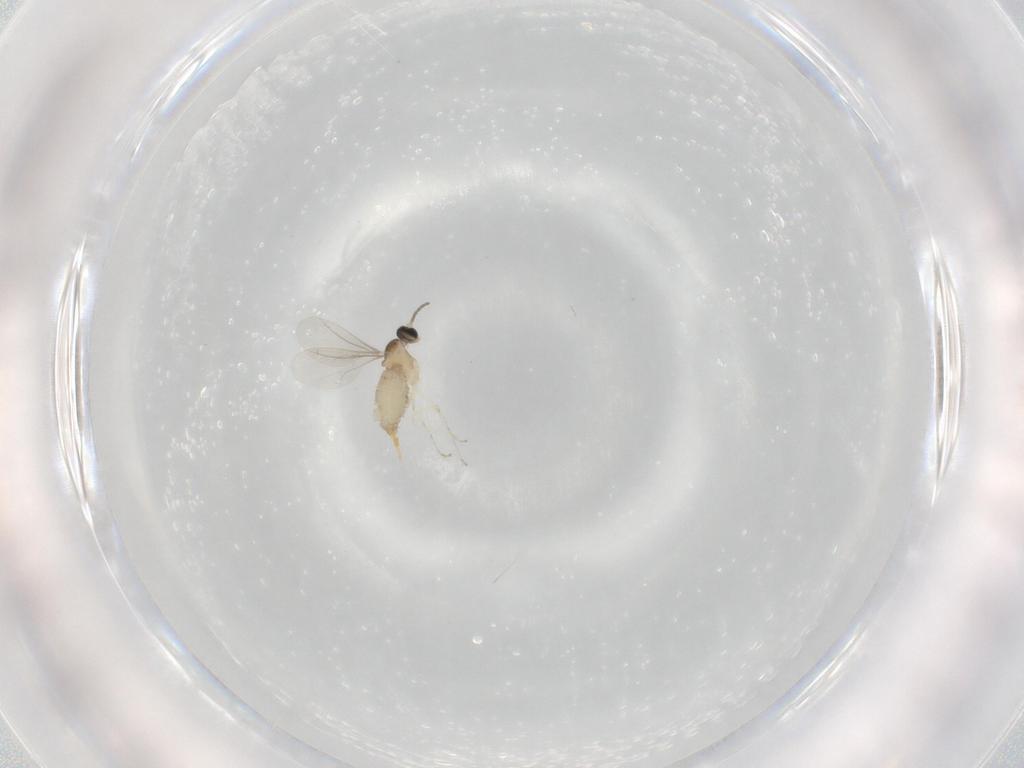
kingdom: Animalia
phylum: Arthropoda
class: Insecta
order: Diptera
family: Cecidomyiidae
